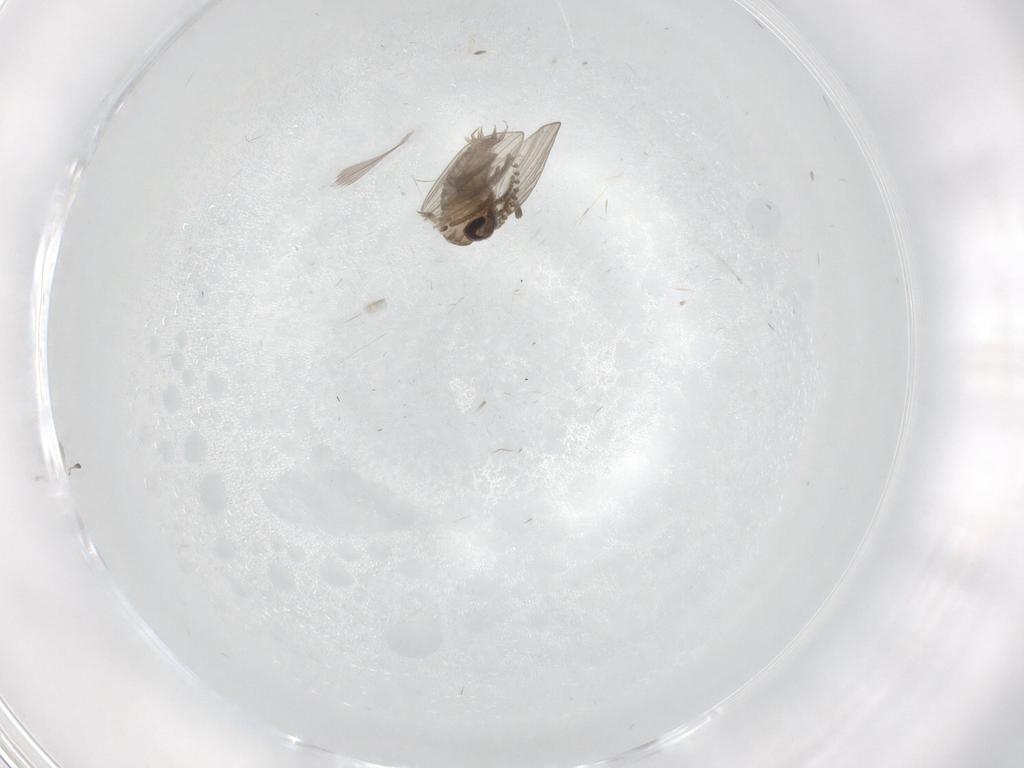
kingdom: Animalia
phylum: Arthropoda
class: Insecta
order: Diptera
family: Psychodidae
